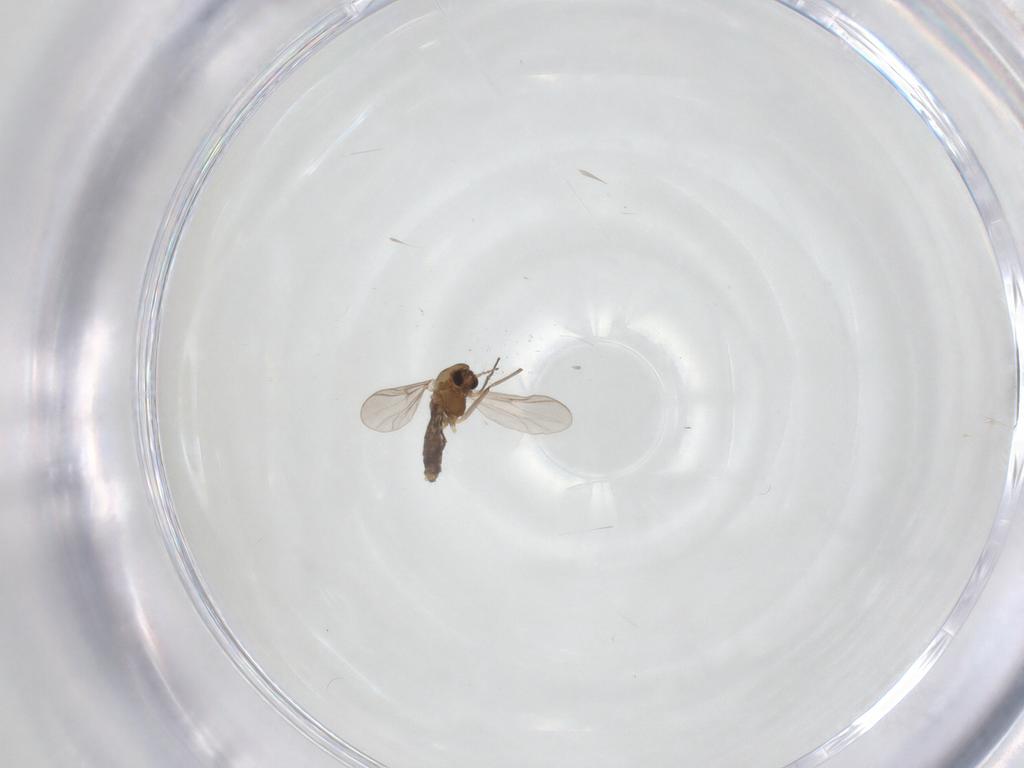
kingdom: Animalia
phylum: Arthropoda
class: Insecta
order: Diptera
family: Chironomidae
